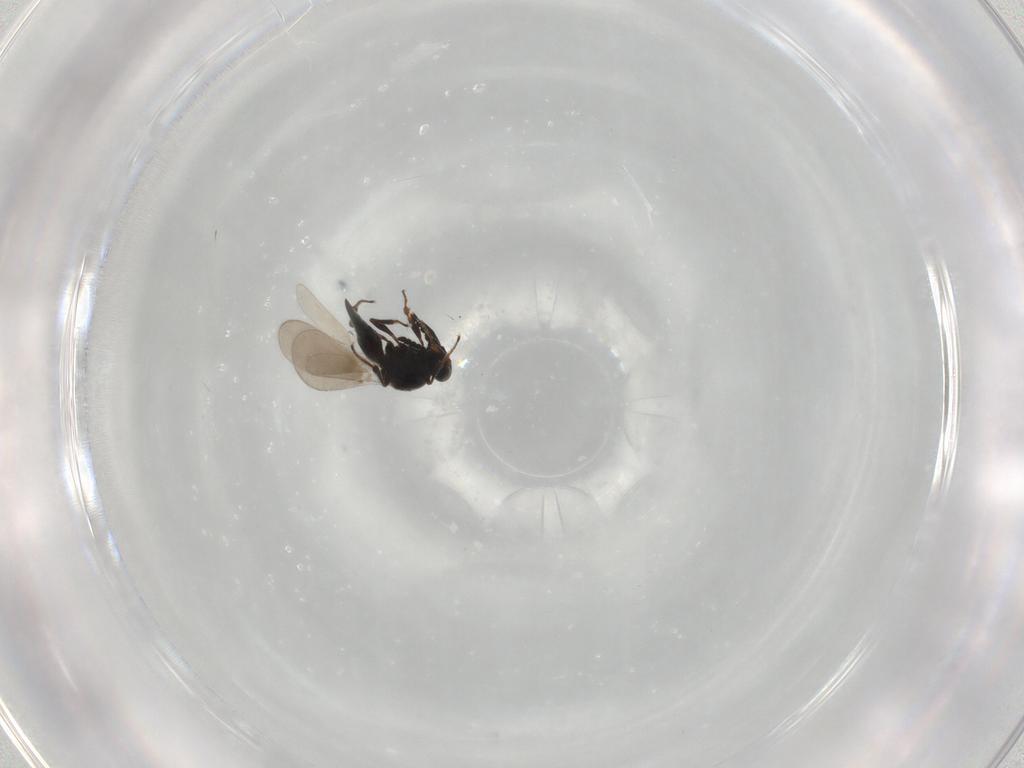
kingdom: Animalia
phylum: Arthropoda
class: Insecta
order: Hymenoptera
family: Platygastridae
